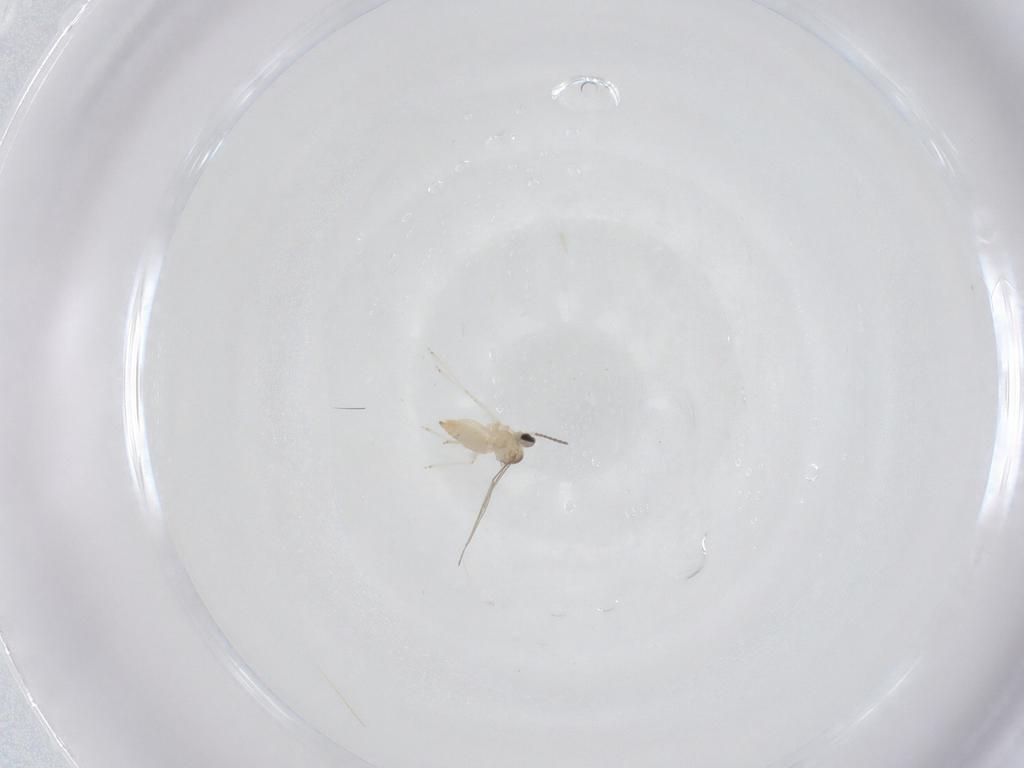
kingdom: Animalia
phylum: Arthropoda
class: Insecta
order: Diptera
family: Cecidomyiidae
